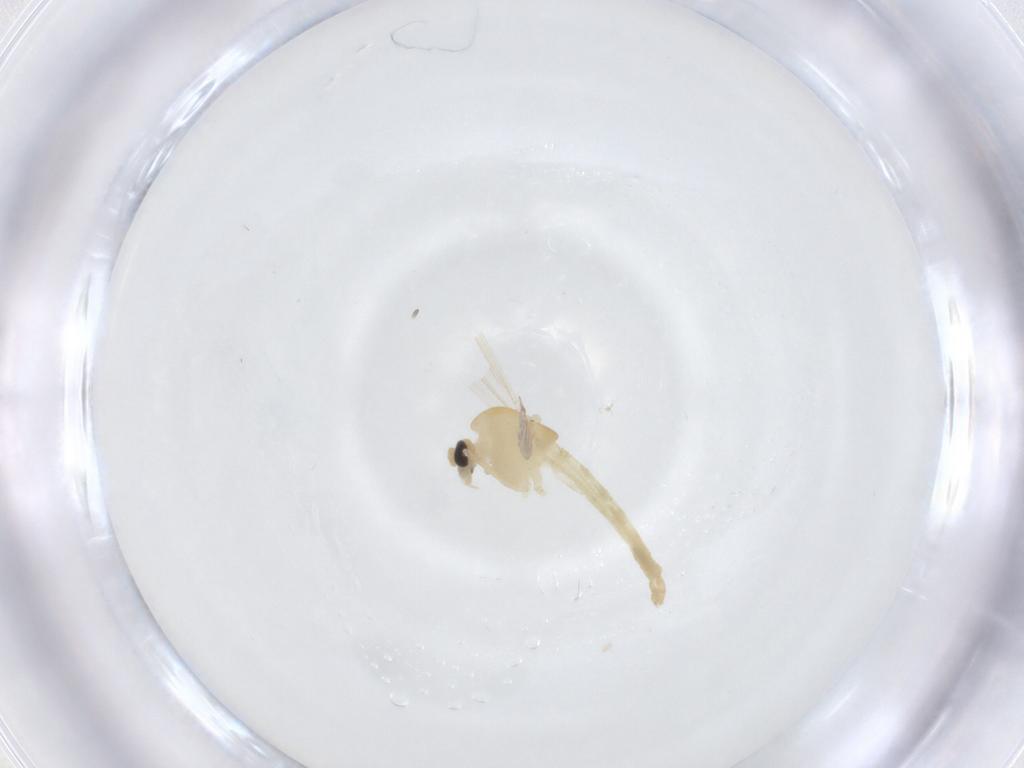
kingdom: Animalia
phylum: Arthropoda
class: Insecta
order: Diptera
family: Chironomidae
